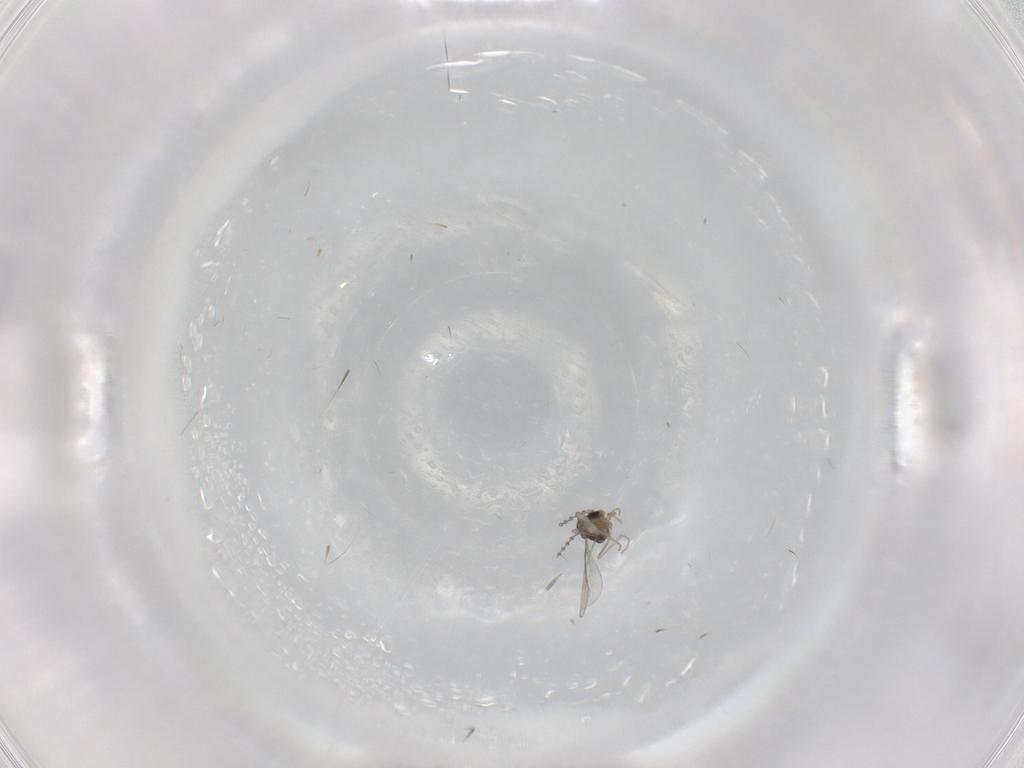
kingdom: Animalia
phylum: Arthropoda
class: Insecta
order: Diptera
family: Cecidomyiidae
